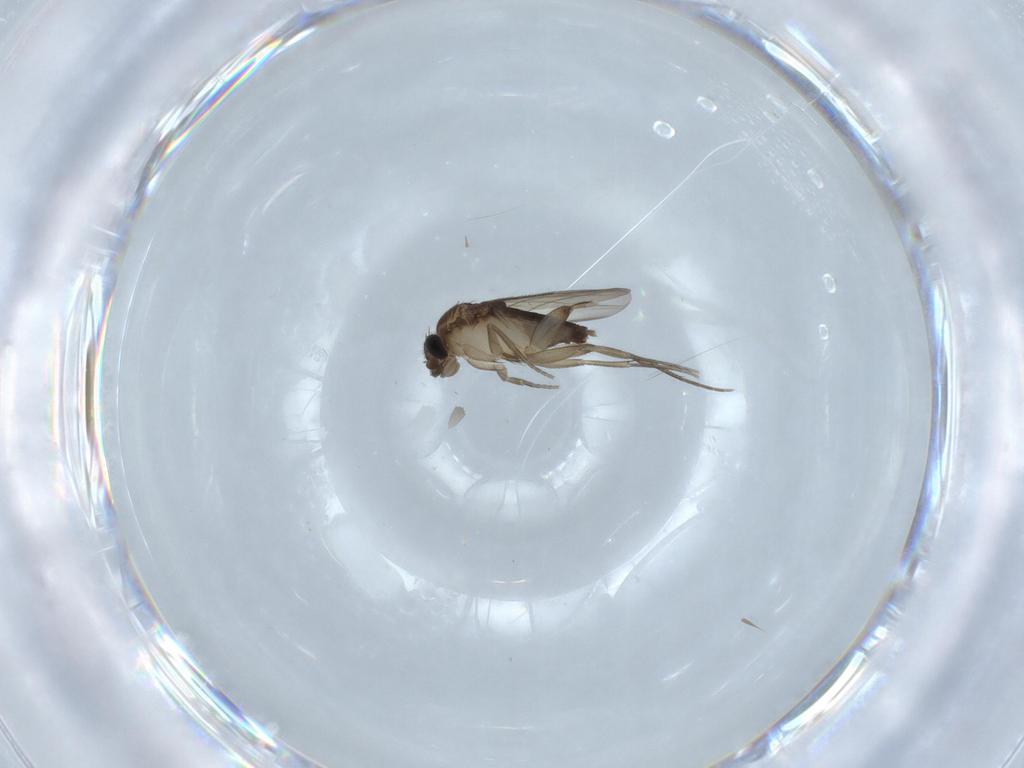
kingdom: Animalia
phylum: Arthropoda
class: Insecta
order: Diptera
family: Phoridae
